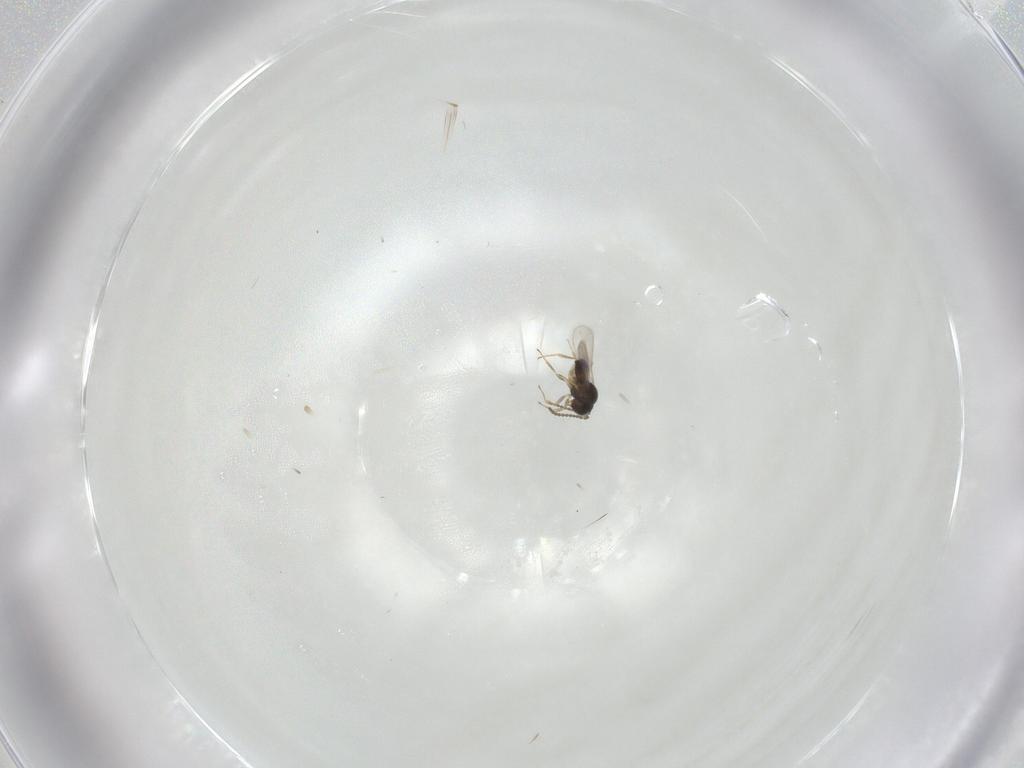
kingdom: Animalia
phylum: Arthropoda
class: Insecta
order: Hymenoptera
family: Scelionidae
